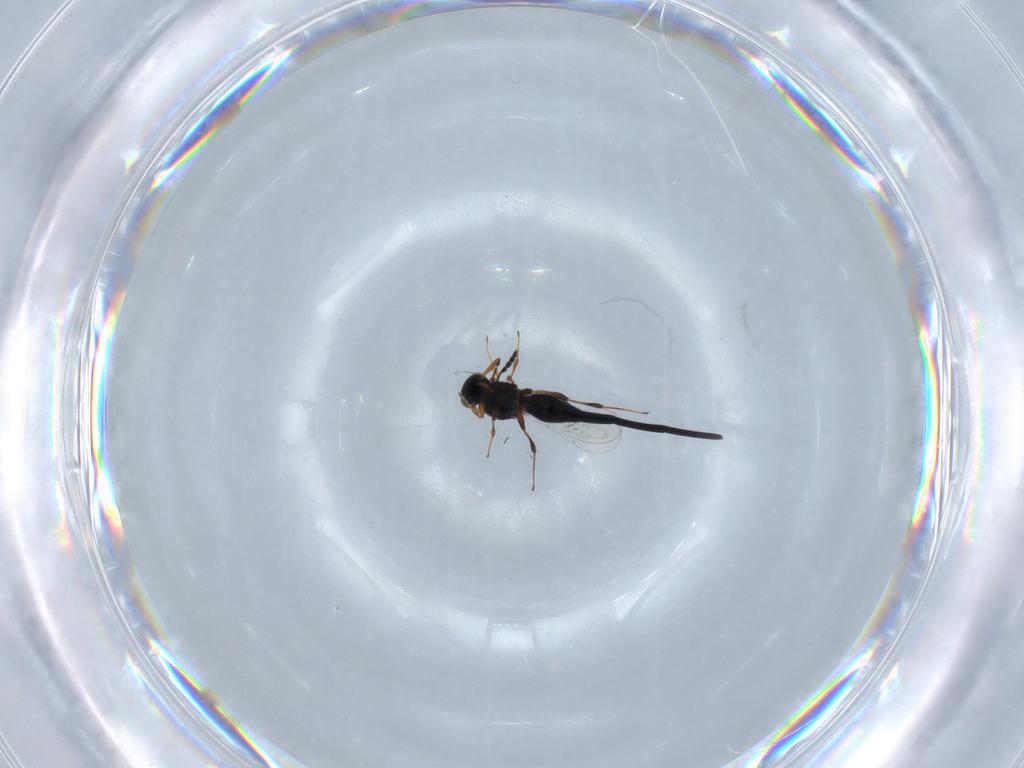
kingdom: Animalia
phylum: Arthropoda
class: Insecta
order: Hymenoptera
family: Platygastridae
